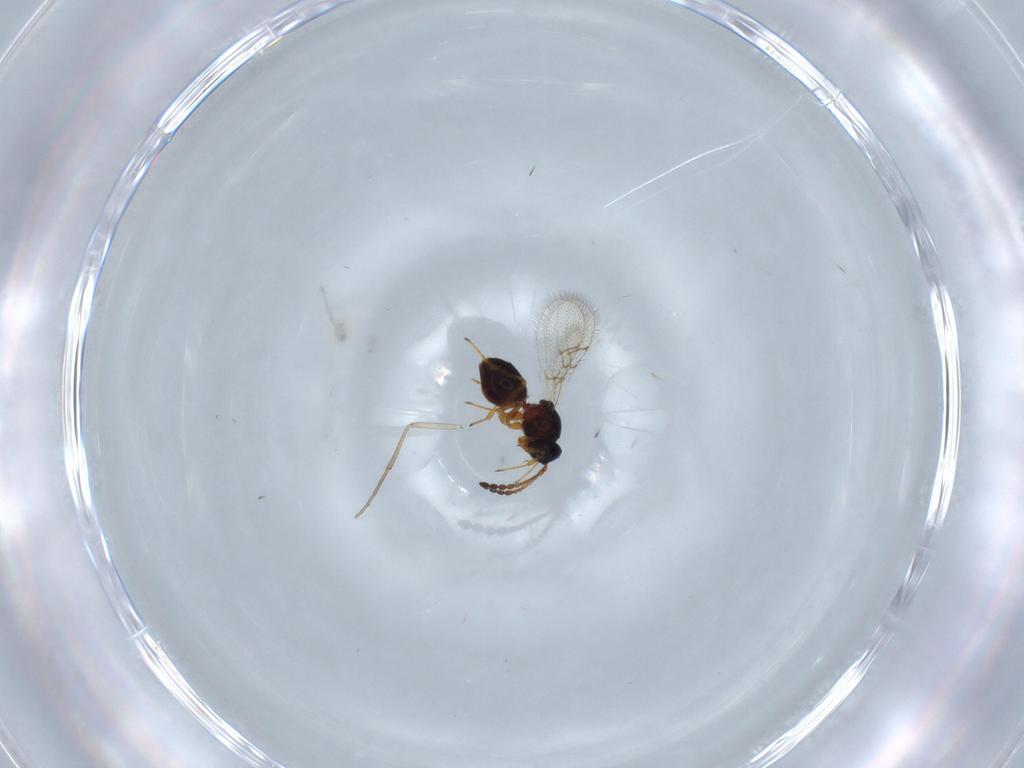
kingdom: Animalia
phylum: Arthropoda
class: Insecta
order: Hymenoptera
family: Figitidae
